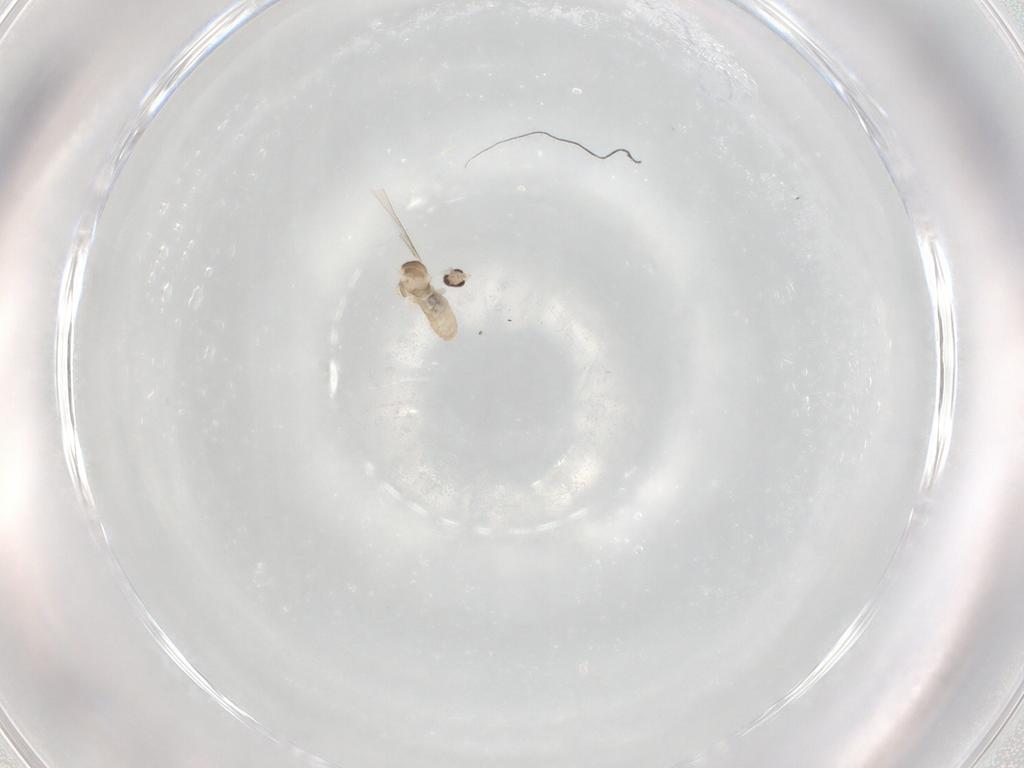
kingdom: Animalia
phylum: Arthropoda
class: Insecta
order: Diptera
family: Cecidomyiidae
